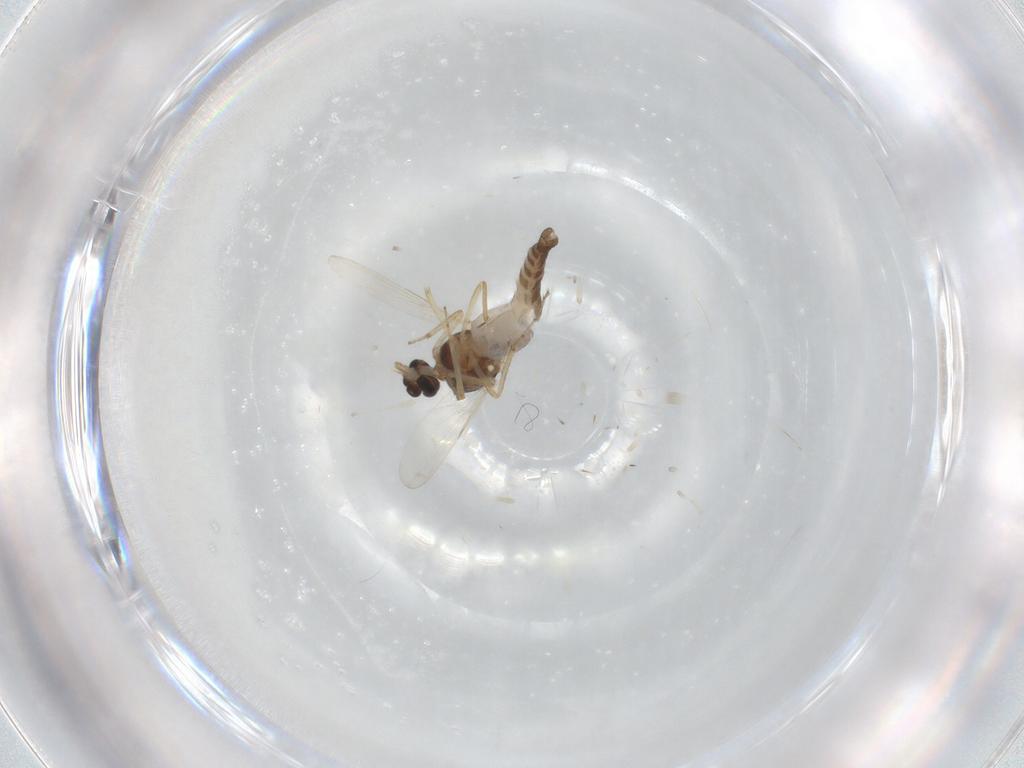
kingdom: Animalia
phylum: Arthropoda
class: Insecta
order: Diptera
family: Ceratopogonidae
